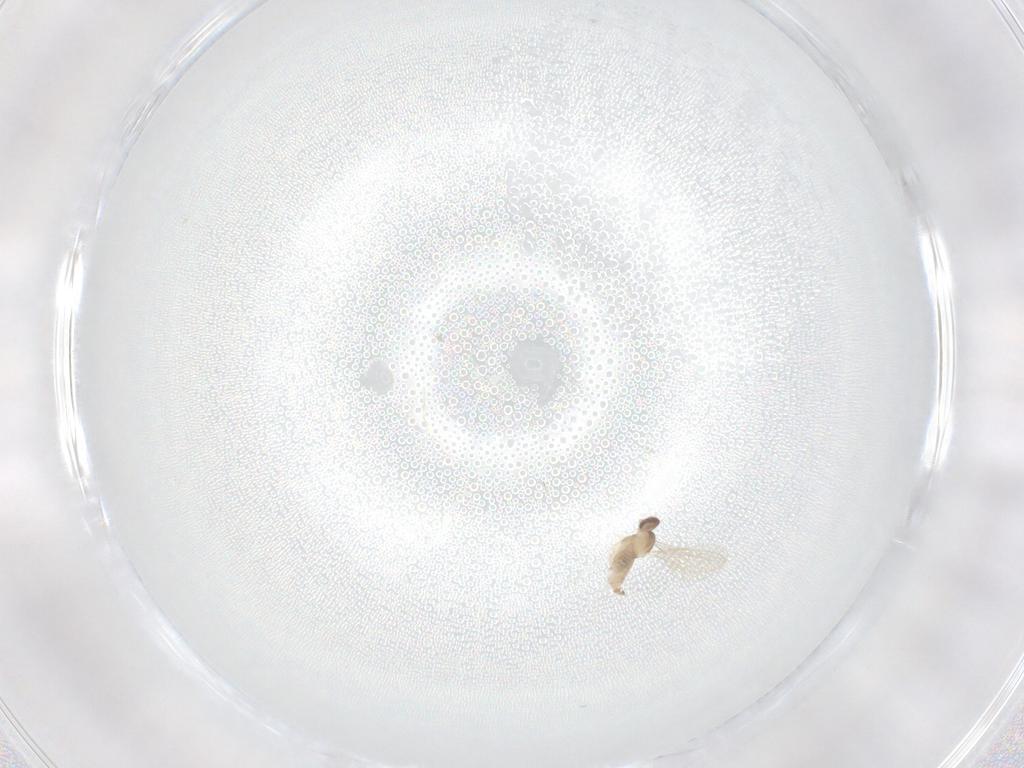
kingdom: Animalia
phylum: Arthropoda
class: Insecta
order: Diptera
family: Cecidomyiidae
